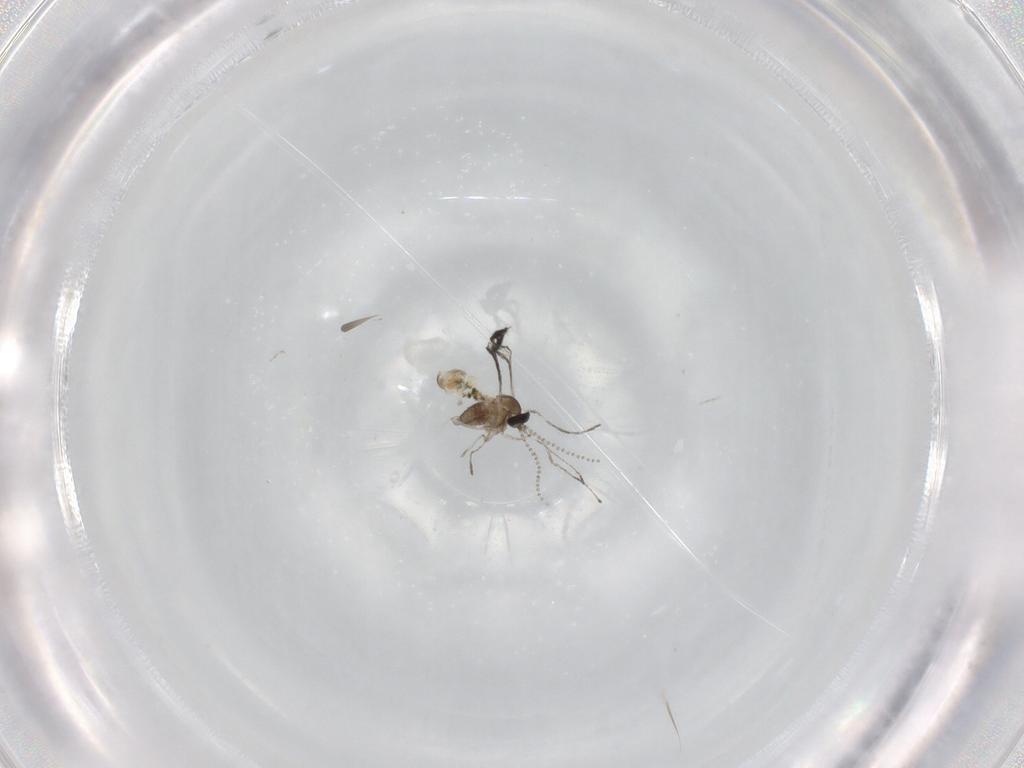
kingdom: Animalia
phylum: Arthropoda
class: Insecta
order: Diptera
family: Cecidomyiidae
